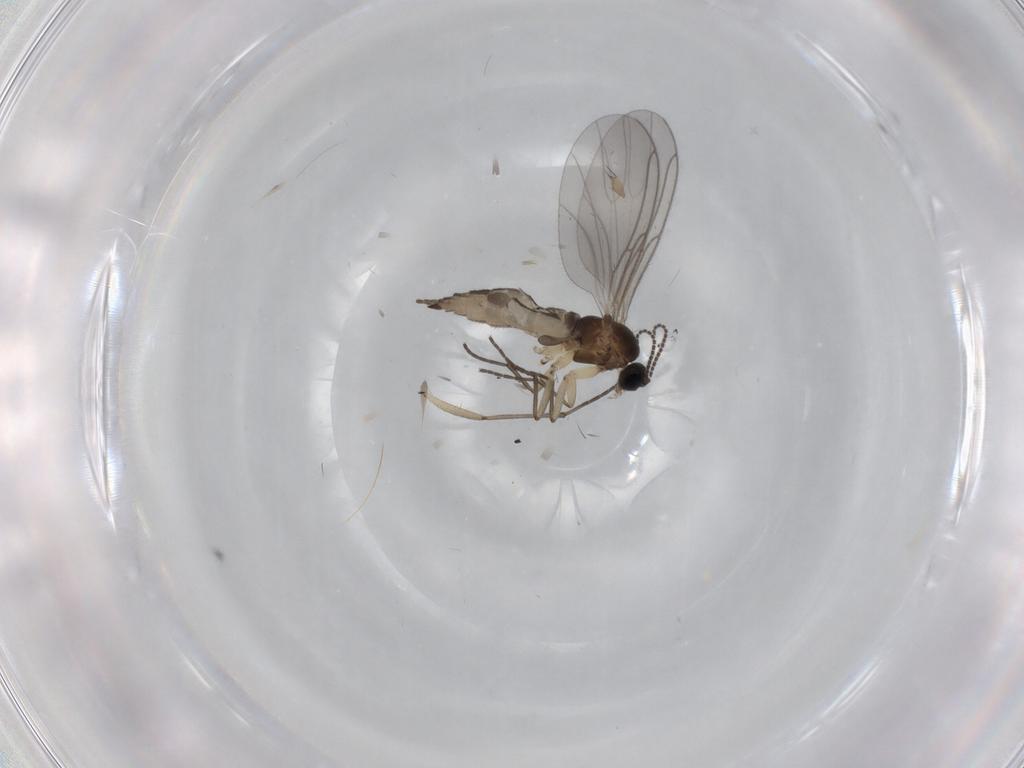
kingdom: Animalia
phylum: Arthropoda
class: Insecta
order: Diptera
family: Sciaridae
